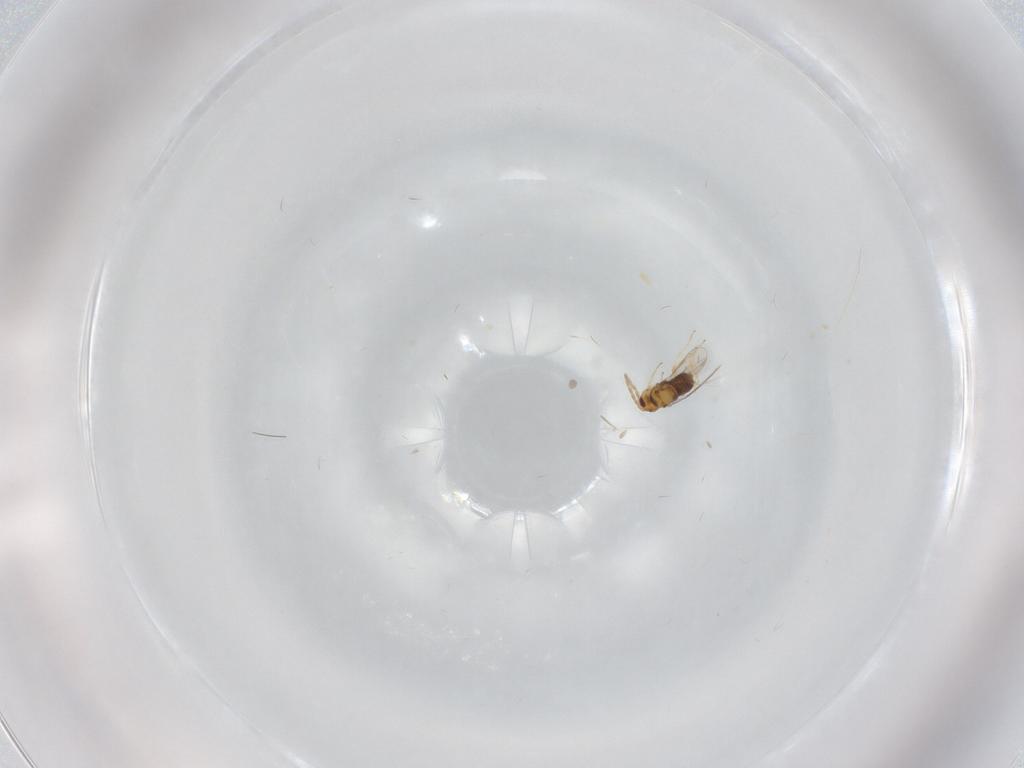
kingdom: Animalia
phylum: Arthropoda
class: Insecta
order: Hymenoptera
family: Aphelinidae
